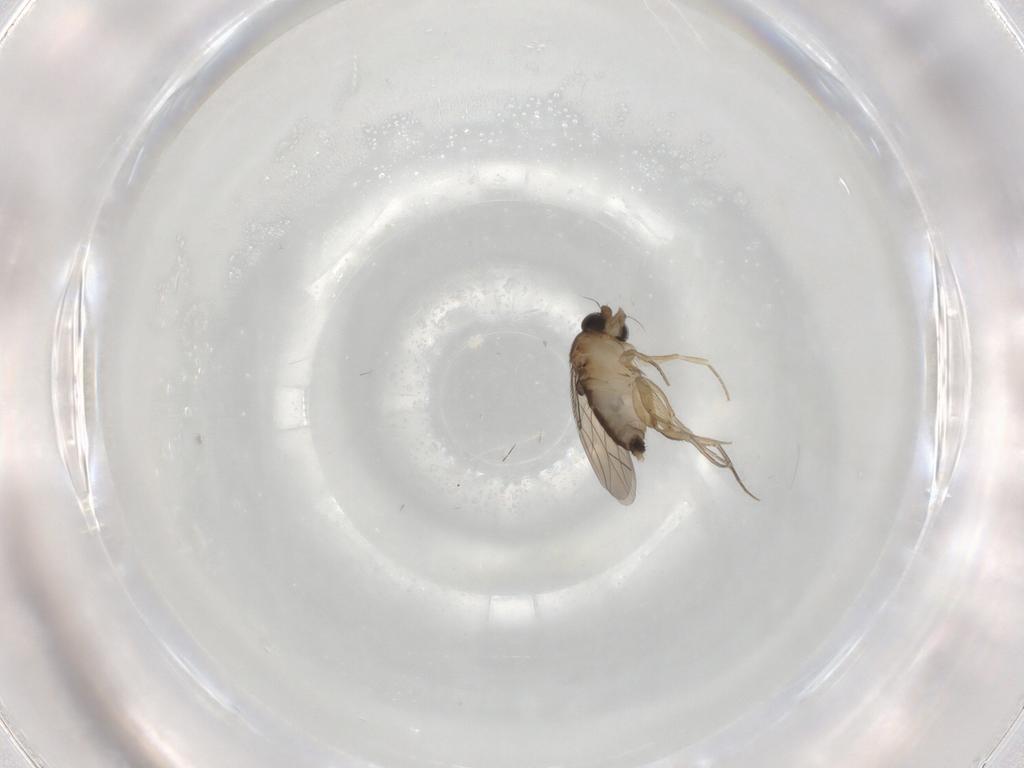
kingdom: Animalia
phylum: Arthropoda
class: Insecta
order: Diptera
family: Phoridae
